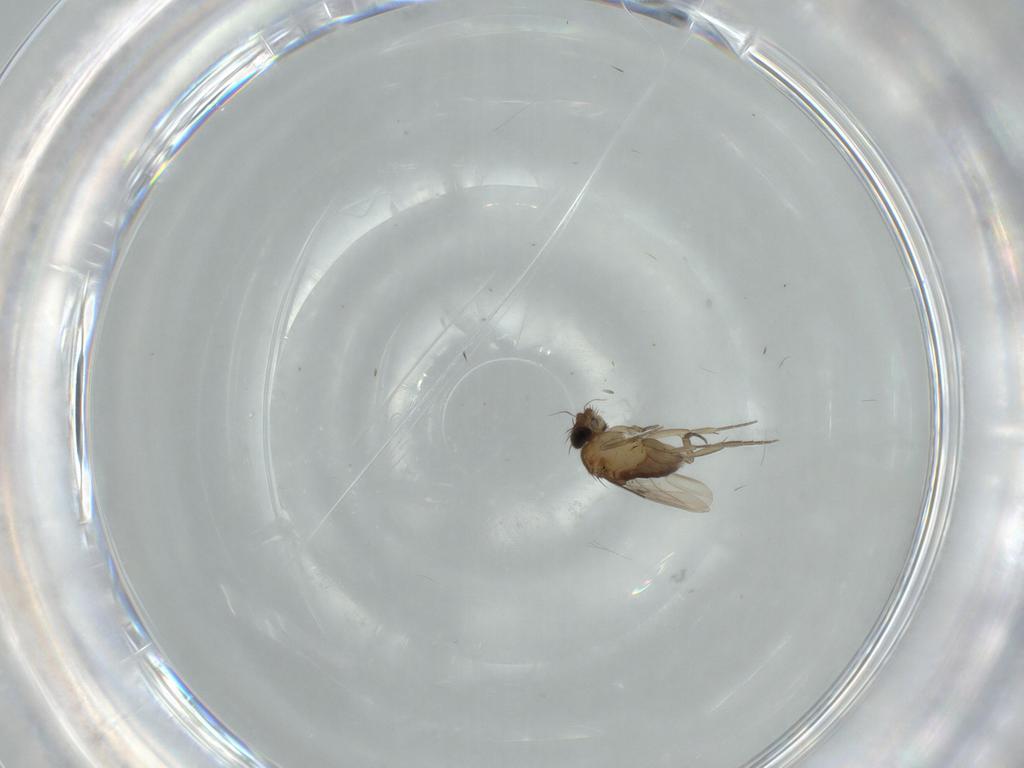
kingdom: Animalia
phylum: Arthropoda
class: Insecta
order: Diptera
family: Cecidomyiidae
